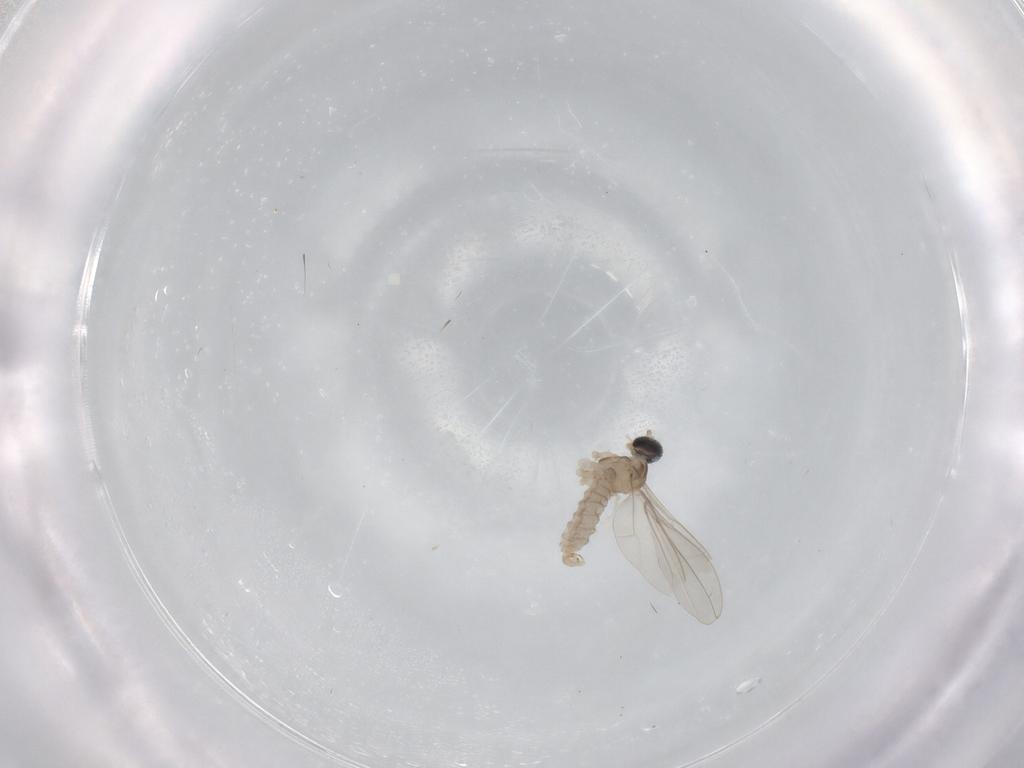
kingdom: Animalia
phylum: Arthropoda
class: Insecta
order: Diptera
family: Cecidomyiidae
